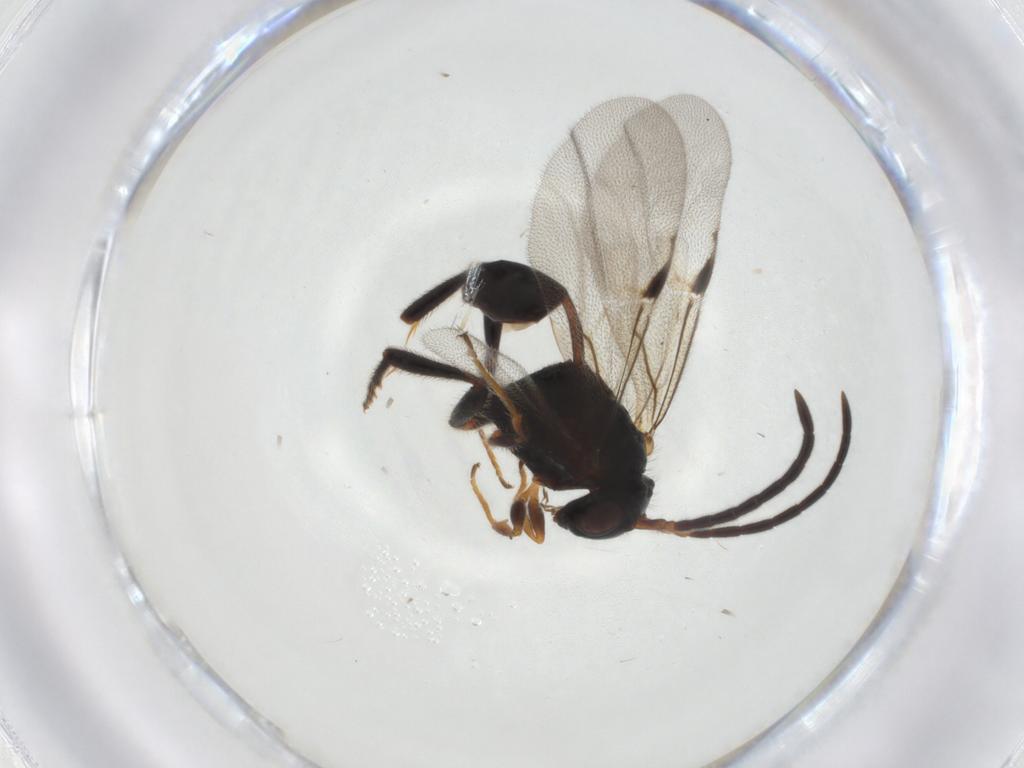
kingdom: Animalia
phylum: Arthropoda
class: Insecta
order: Hymenoptera
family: Evaniidae
